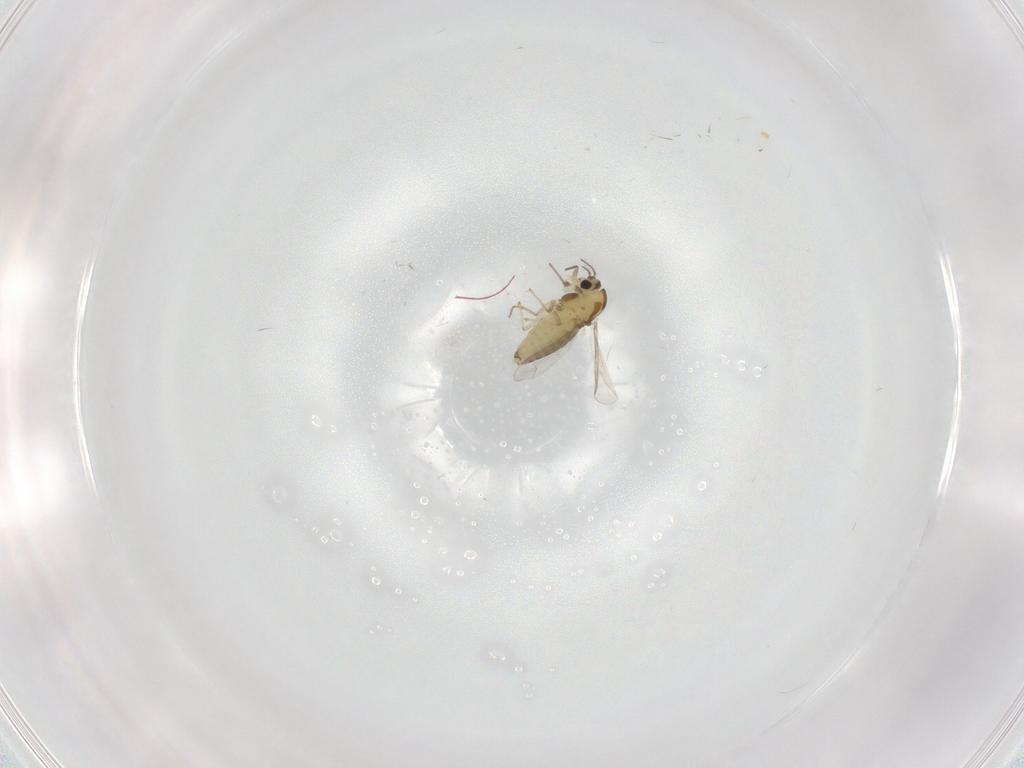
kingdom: Animalia
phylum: Arthropoda
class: Insecta
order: Diptera
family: Chironomidae
